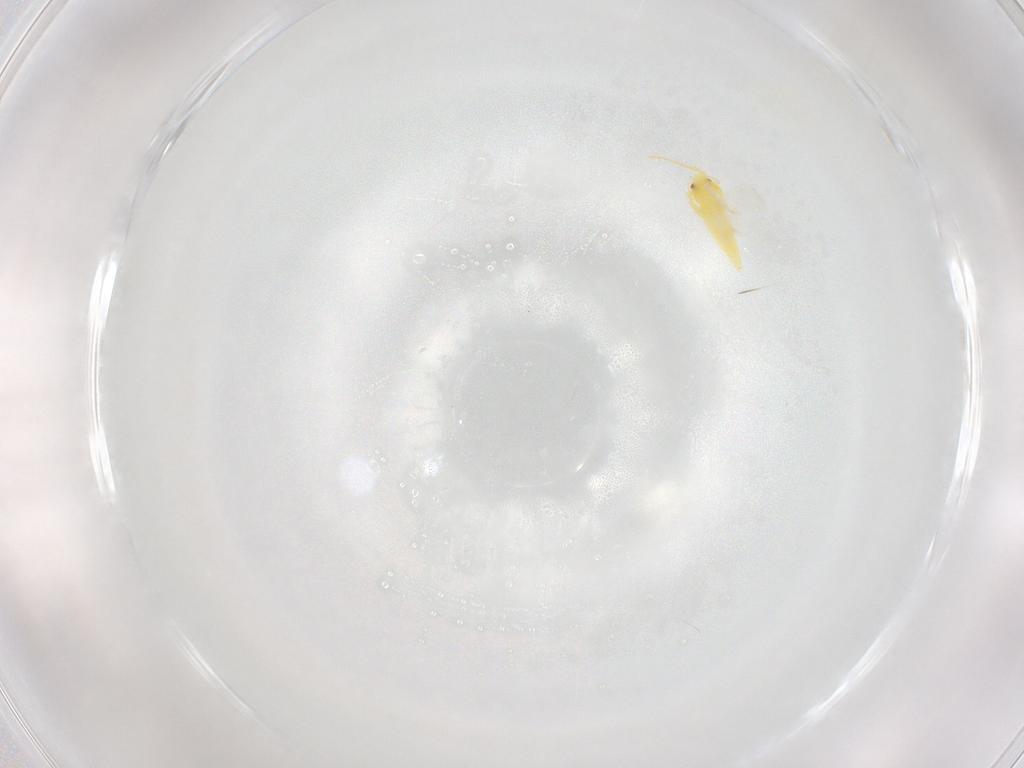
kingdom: Animalia
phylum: Arthropoda
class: Insecta
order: Hemiptera
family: Aleyrodidae
